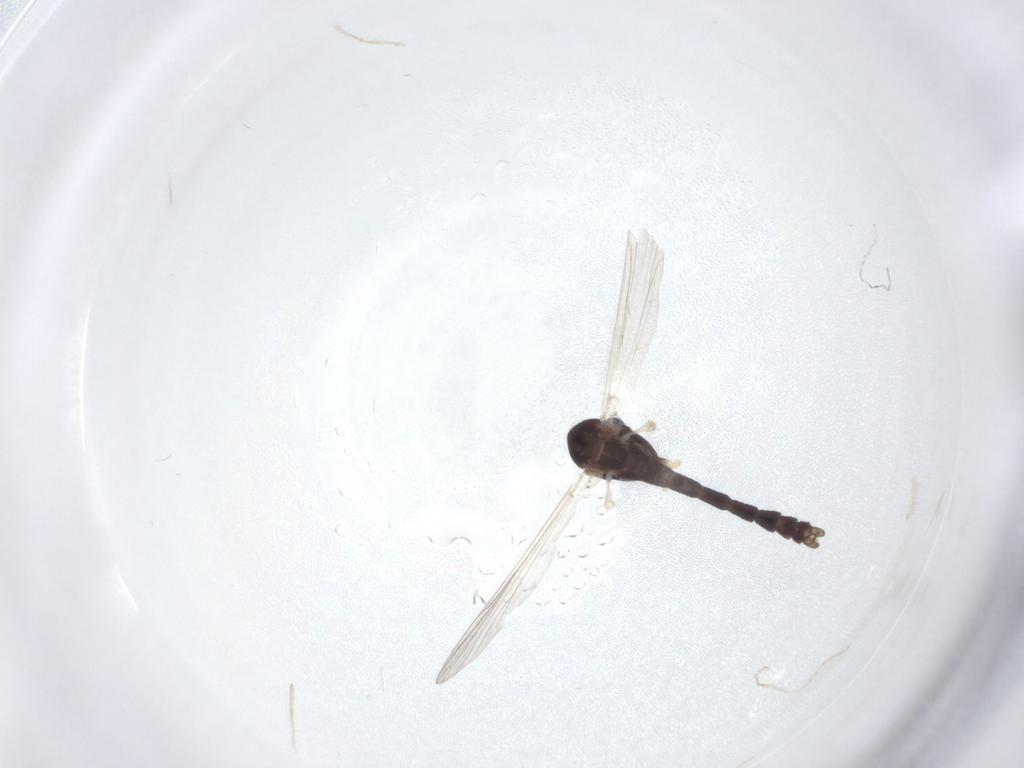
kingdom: Animalia
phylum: Arthropoda
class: Insecta
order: Diptera
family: Chironomidae
